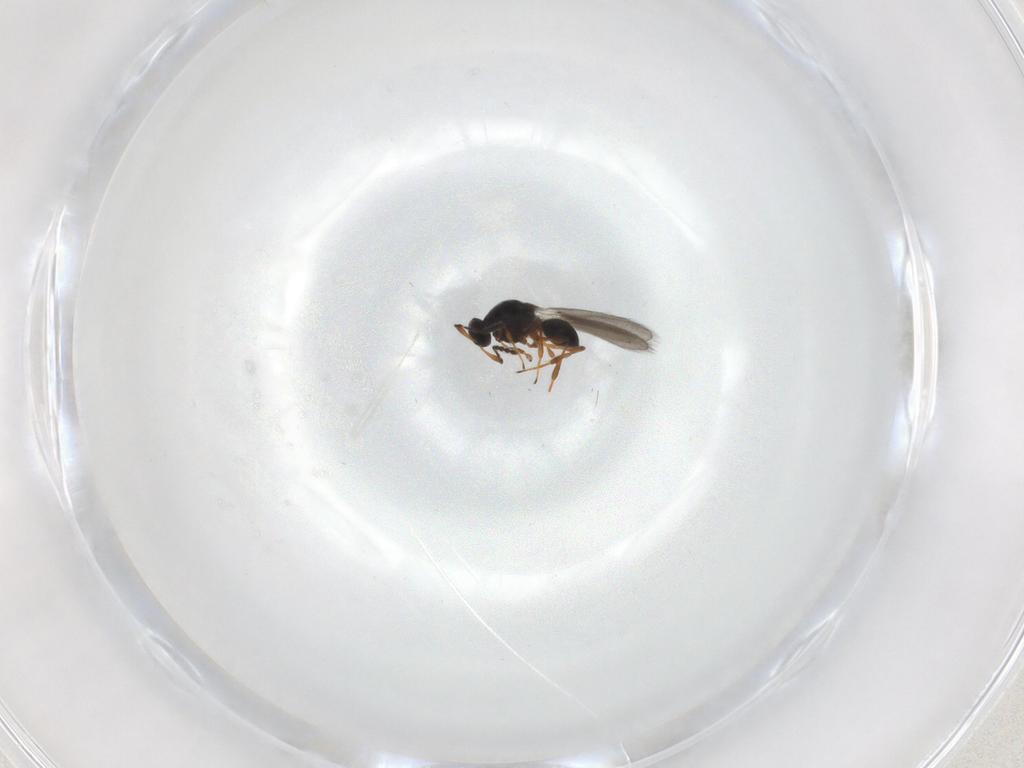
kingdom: Animalia
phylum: Arthropoda
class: Insecta
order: Hymenoptera
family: Platygastridae
